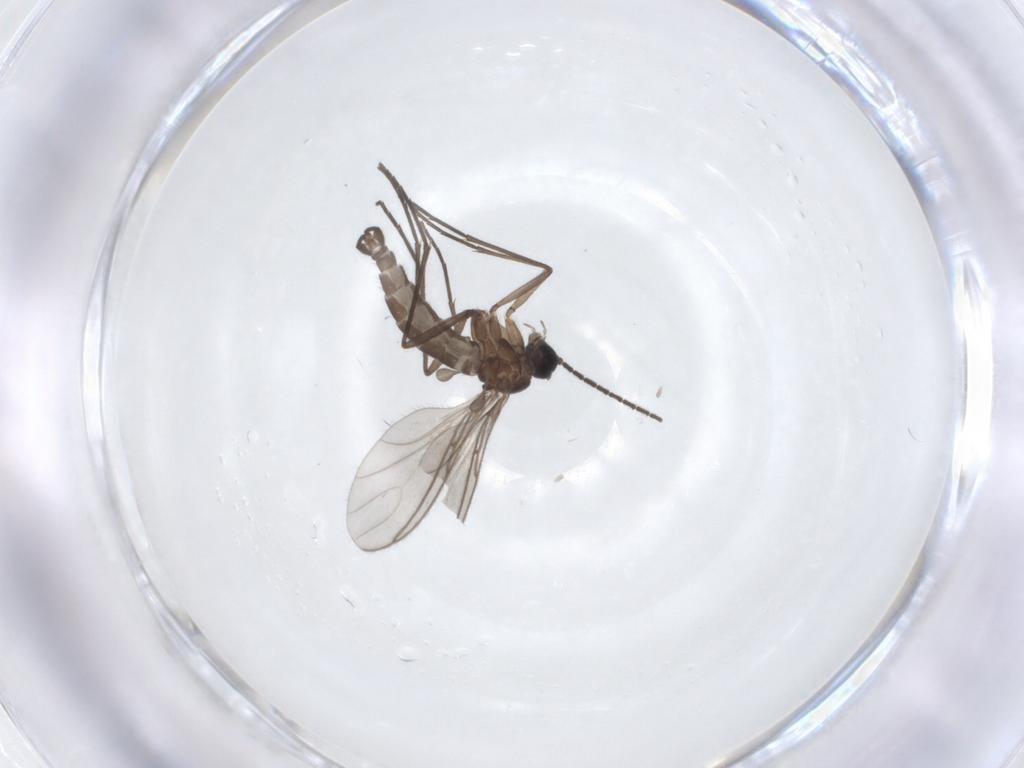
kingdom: Animalia
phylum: Arthropoda
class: Insecta
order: Diptera
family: Sciaridae
